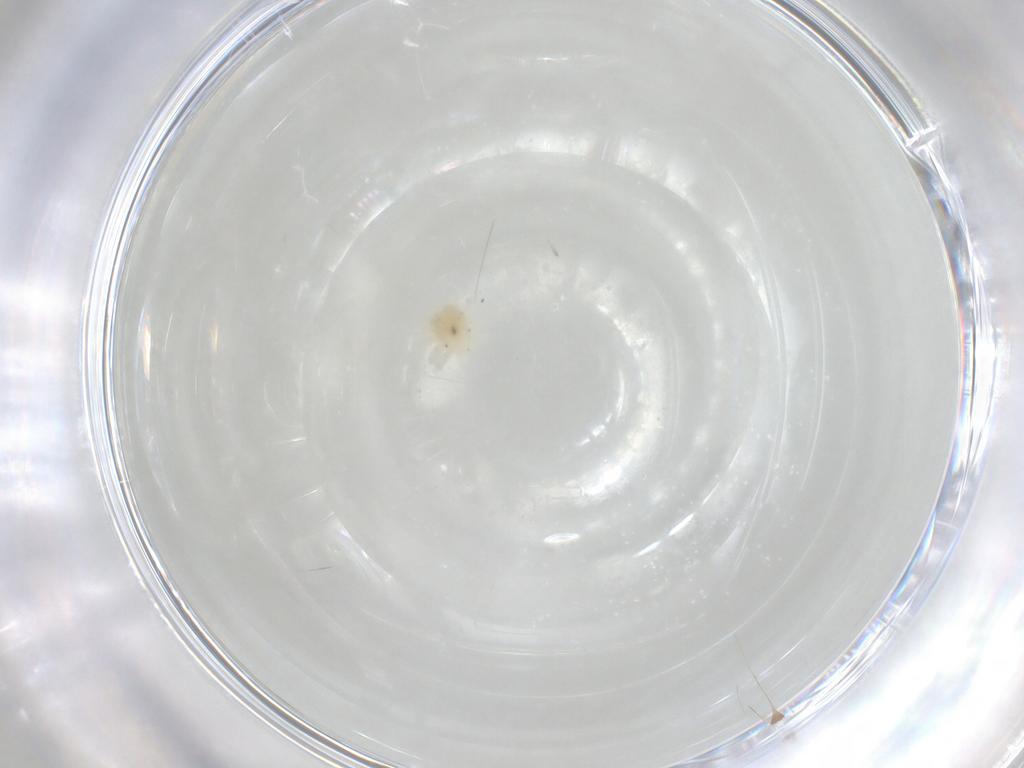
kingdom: Animalia
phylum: Arthropoda
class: Arachnida
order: Trombidiformes
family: Anystidae
